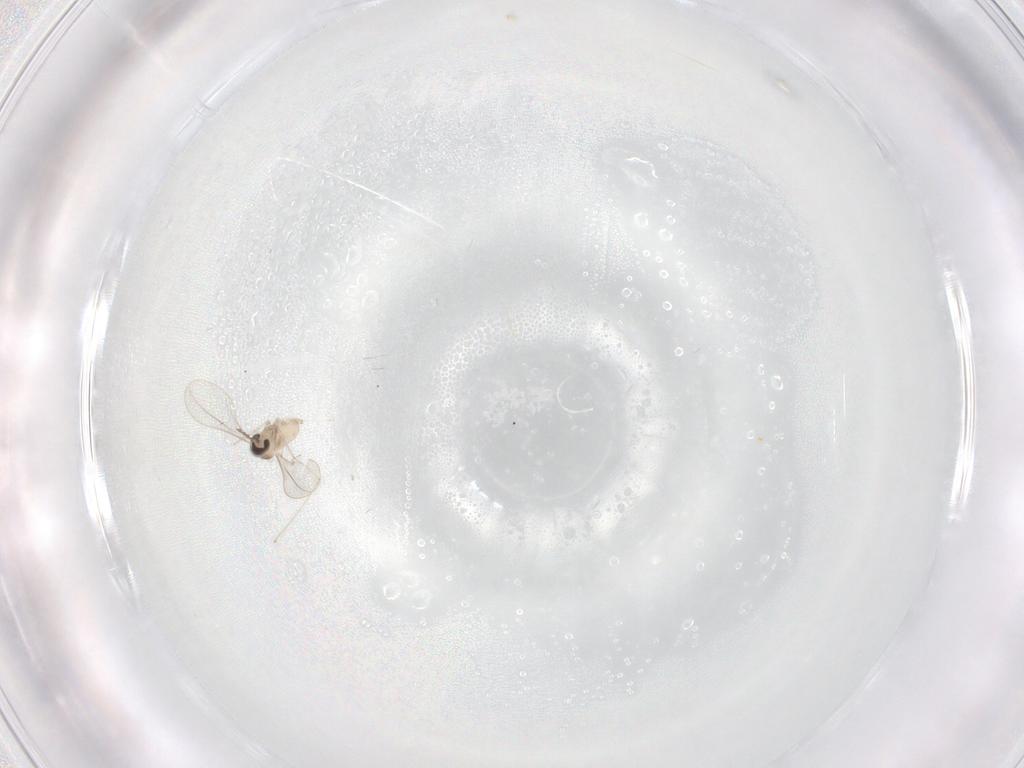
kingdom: Animalia
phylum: Arthropoda
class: Insecta
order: Diptera
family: Cecidomyiidae
